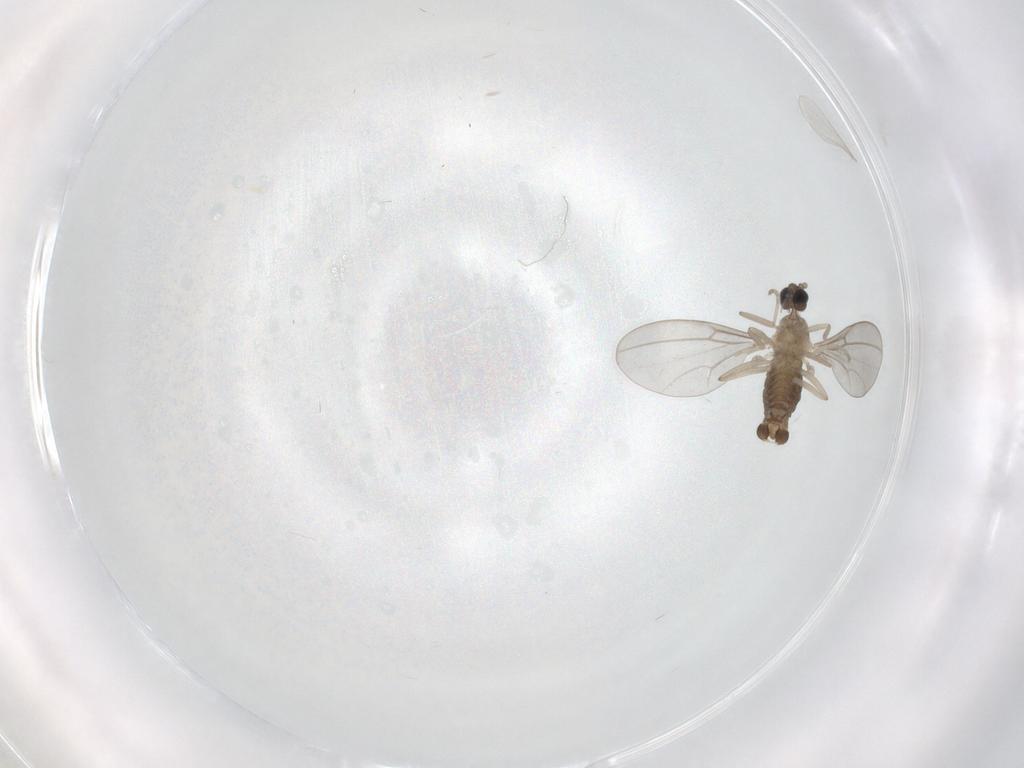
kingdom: Animalia
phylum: Arthropoda
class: Insecta
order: Diptera
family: Cecidomyiidae
